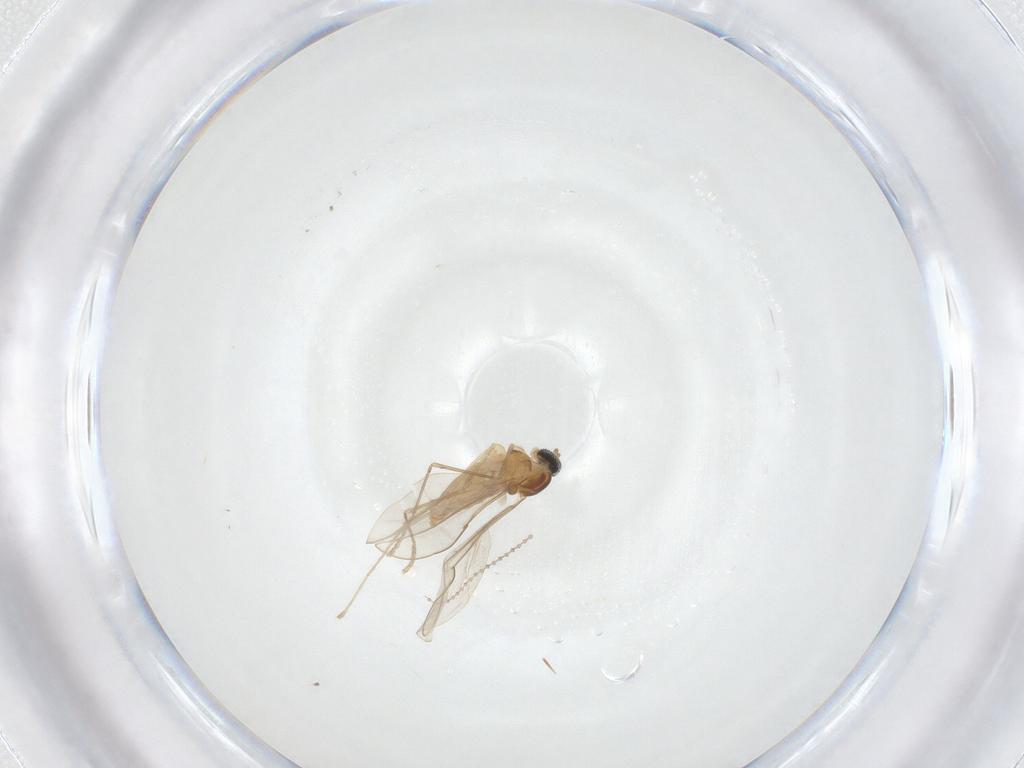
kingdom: Animalia
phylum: Arthropoda
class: Insecta
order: Diptera
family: Cecidomyiidae
